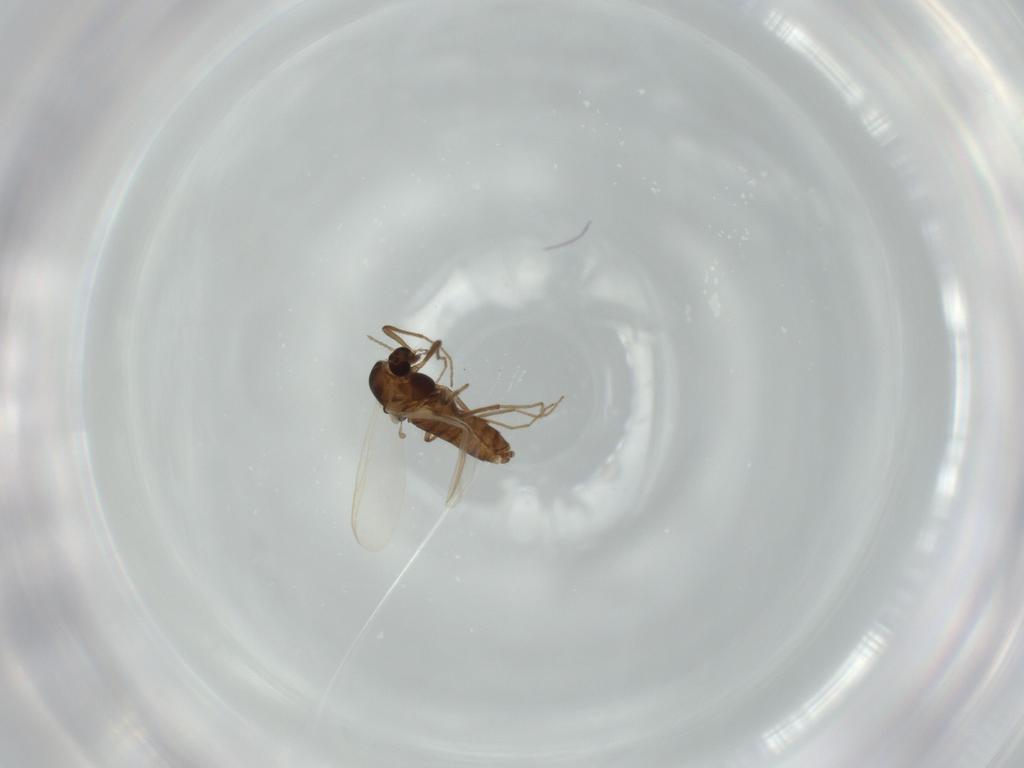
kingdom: Animalia
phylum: Arthropoda
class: Insecta
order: Diptera
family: Chironomidae
